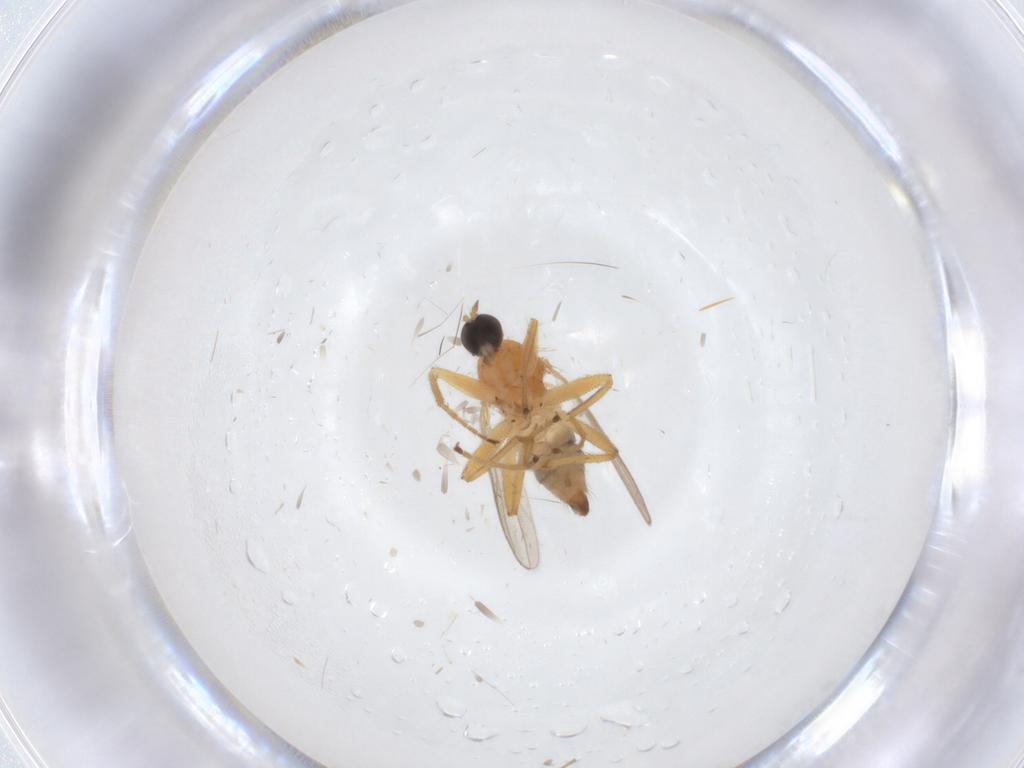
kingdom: Animalia
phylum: Arthropoda
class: Insecta
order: Diptera
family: Hybotidae
